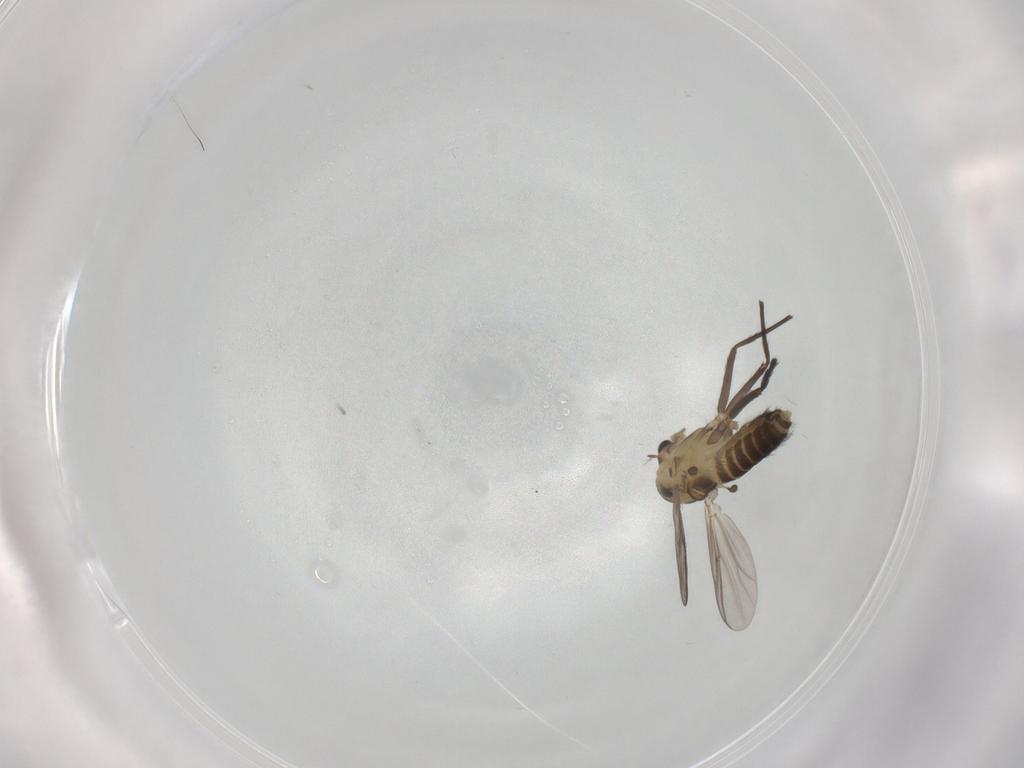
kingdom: Animalia
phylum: Arthropoda
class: Insecta
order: Diptera
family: Chironomidae
